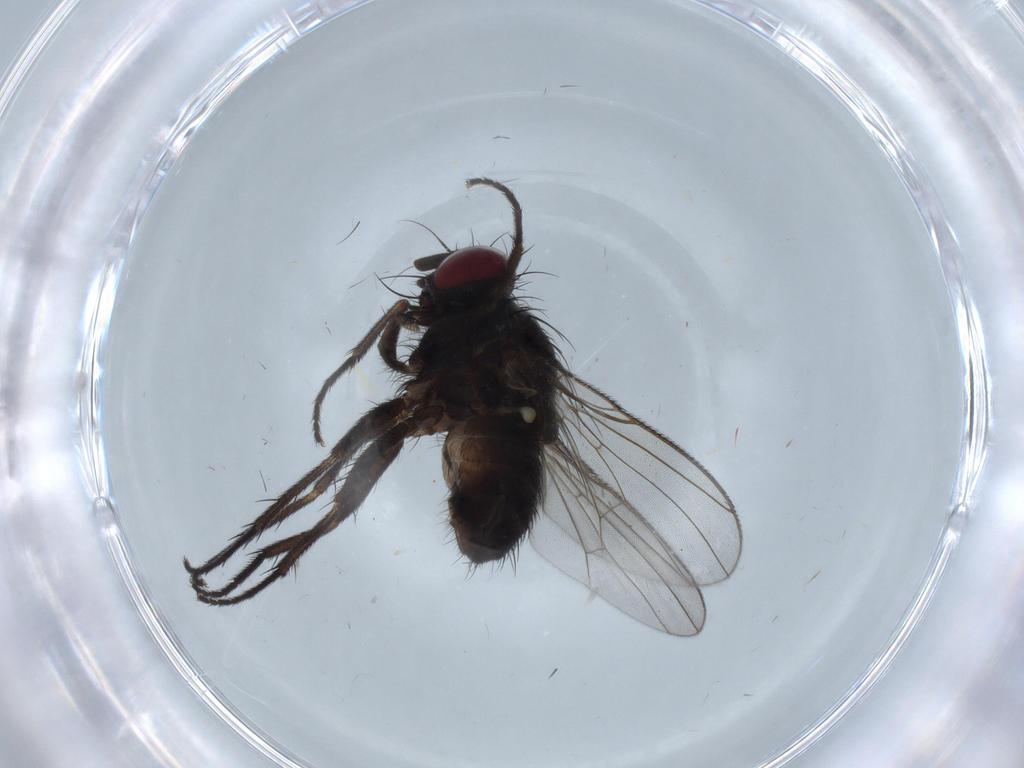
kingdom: Animalia
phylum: Arthropoda
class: Insecta
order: Diptera
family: Muscidae
